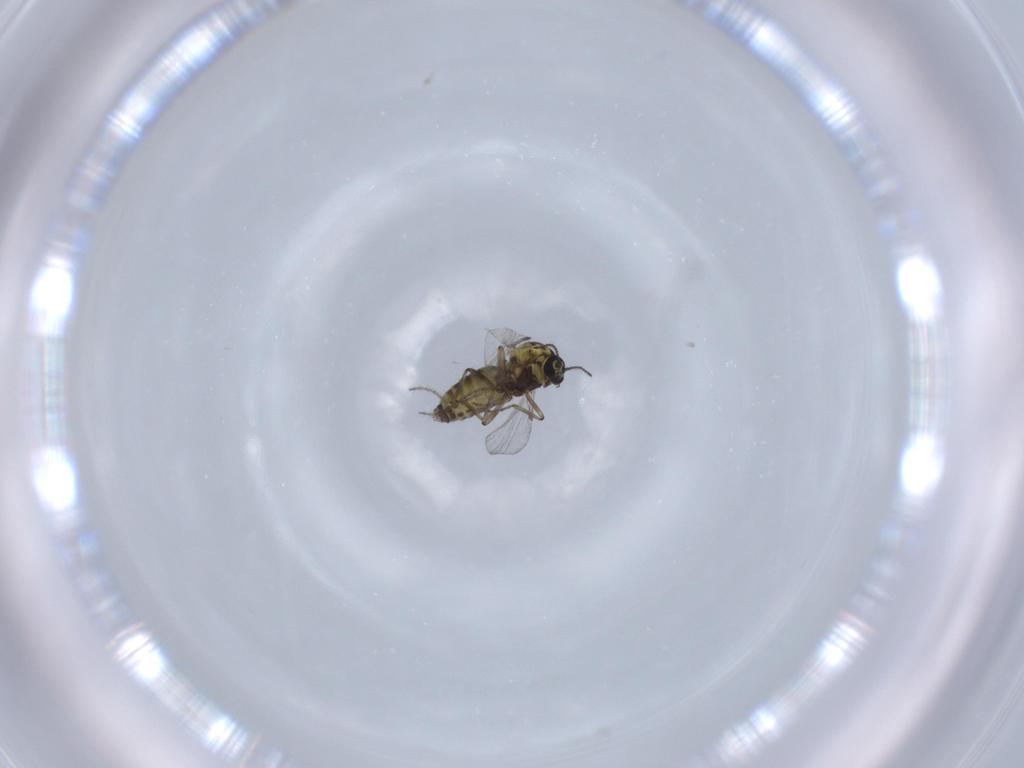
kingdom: Animalia
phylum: Arthropoda
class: Insecta
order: Diptera
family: Ceratopogonidae
